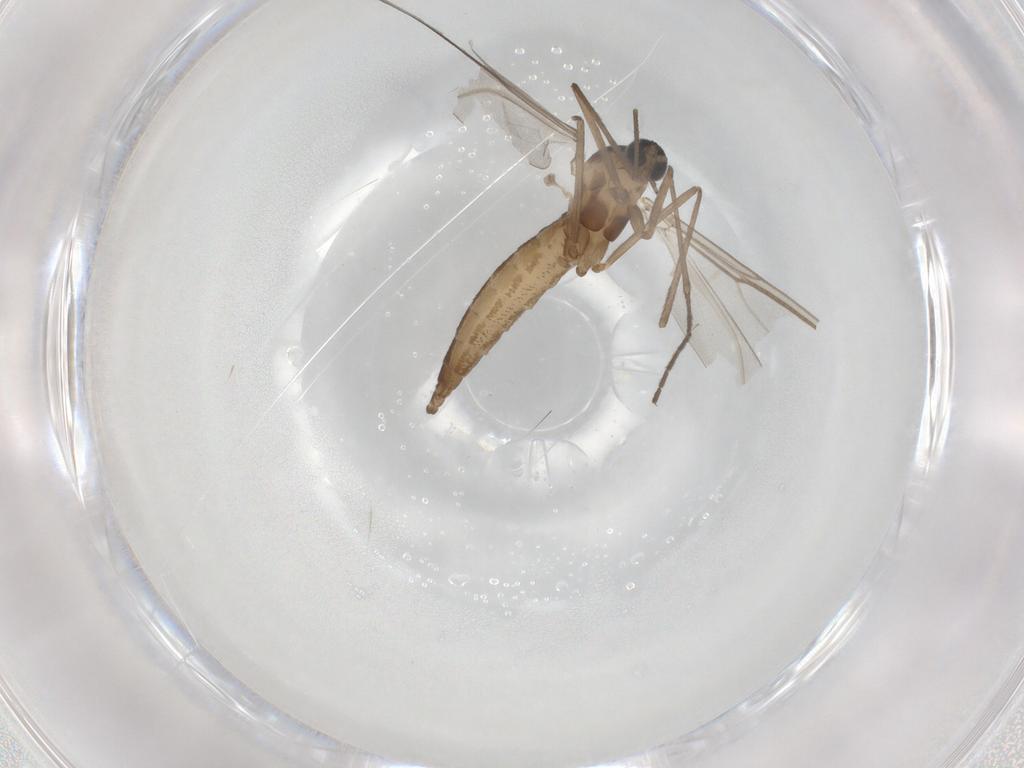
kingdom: Animalia
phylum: Arthropoda
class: Insecta
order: Diptera
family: Cecidomyiidae
